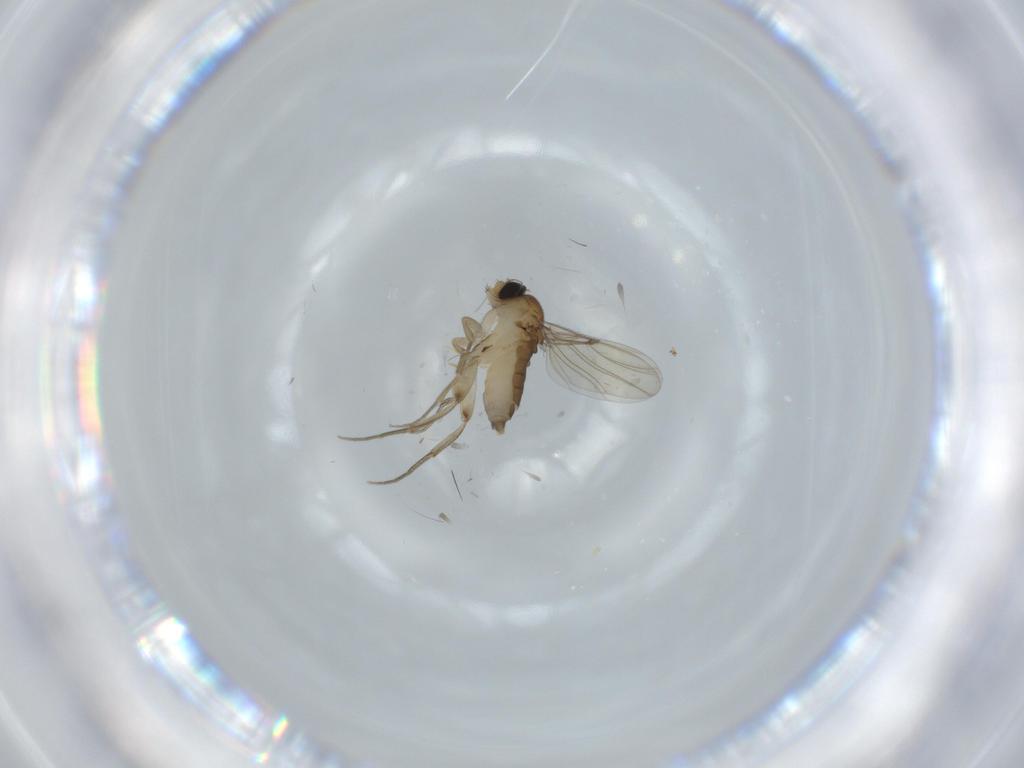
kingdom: Animalia
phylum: Arthropoda
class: Insecta
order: Diptera
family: Phoridae
